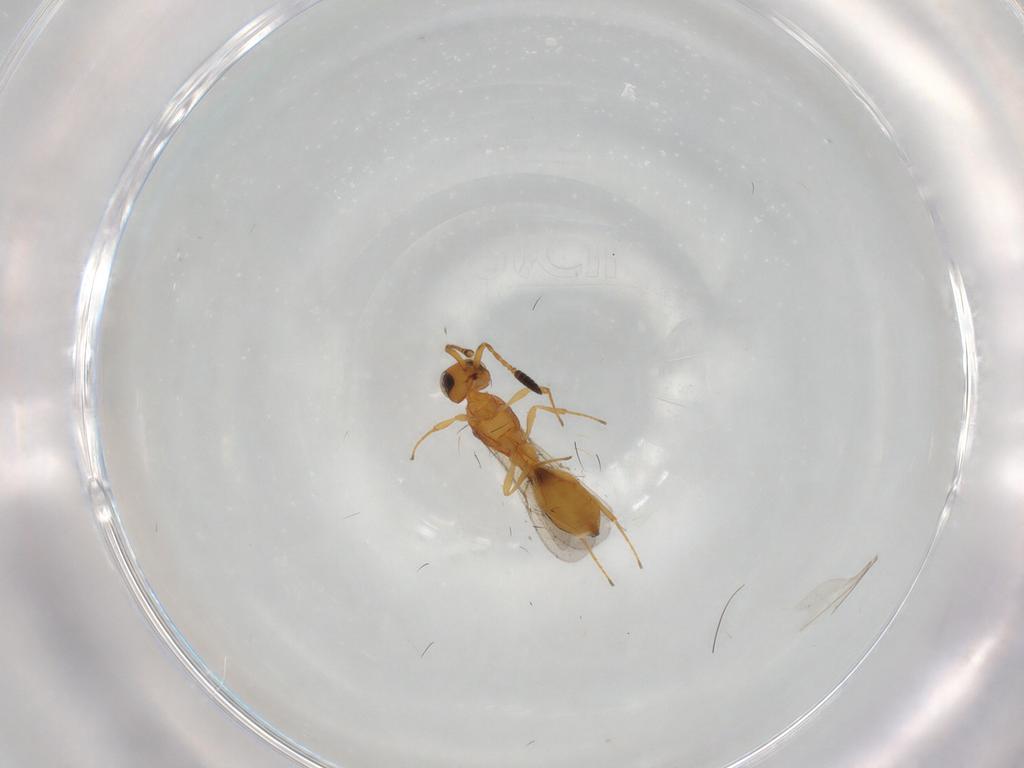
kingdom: Animalia
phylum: Arthropoda
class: Insecta
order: Hymenoptera
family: Scelionidae
